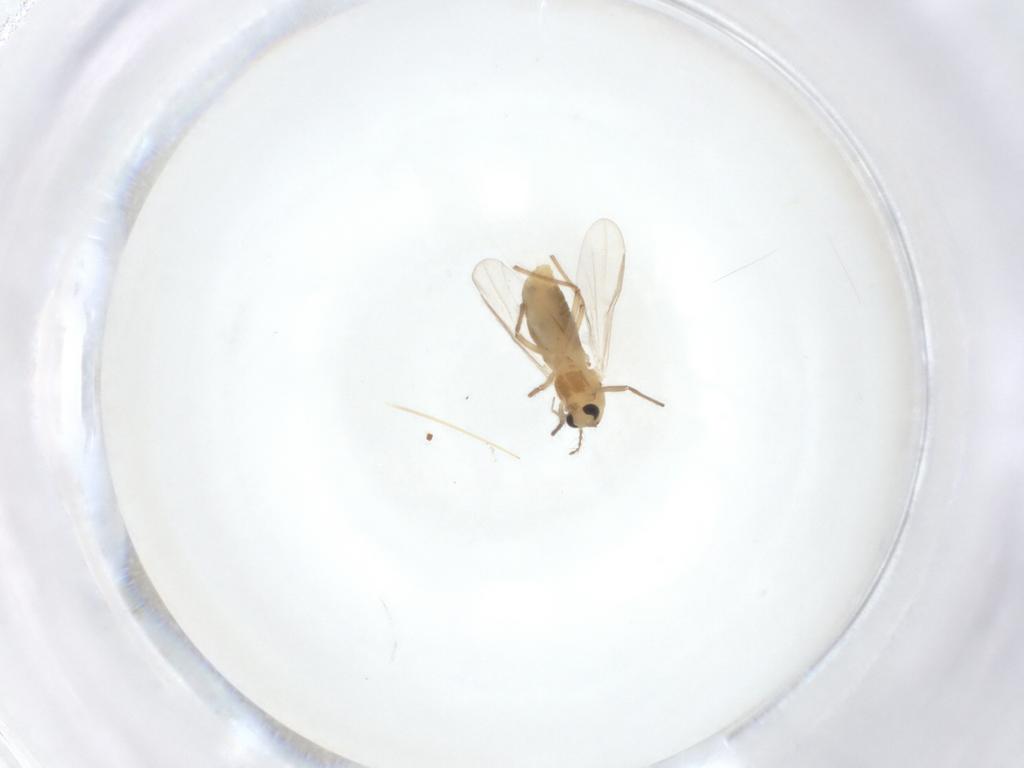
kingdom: Animalia
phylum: Arthropoda
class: Insecta
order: Diptera
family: Chironomidae
